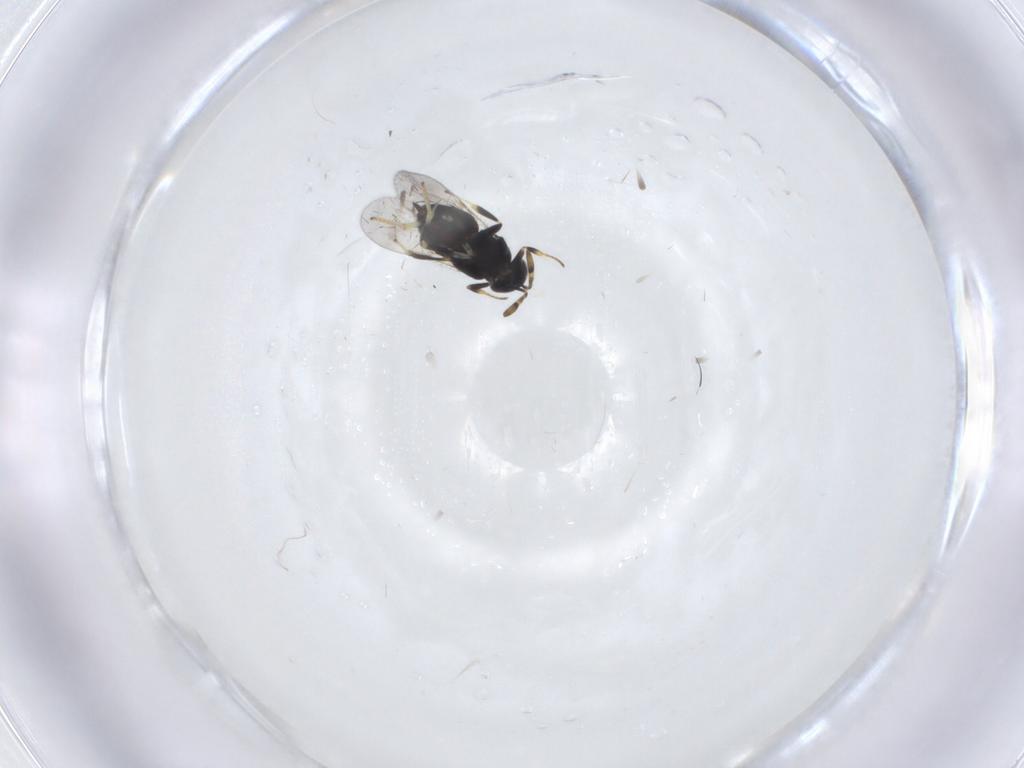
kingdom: Animalia
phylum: Arthropoda
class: Insecta
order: Hymenoptera
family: Encyrtidae
